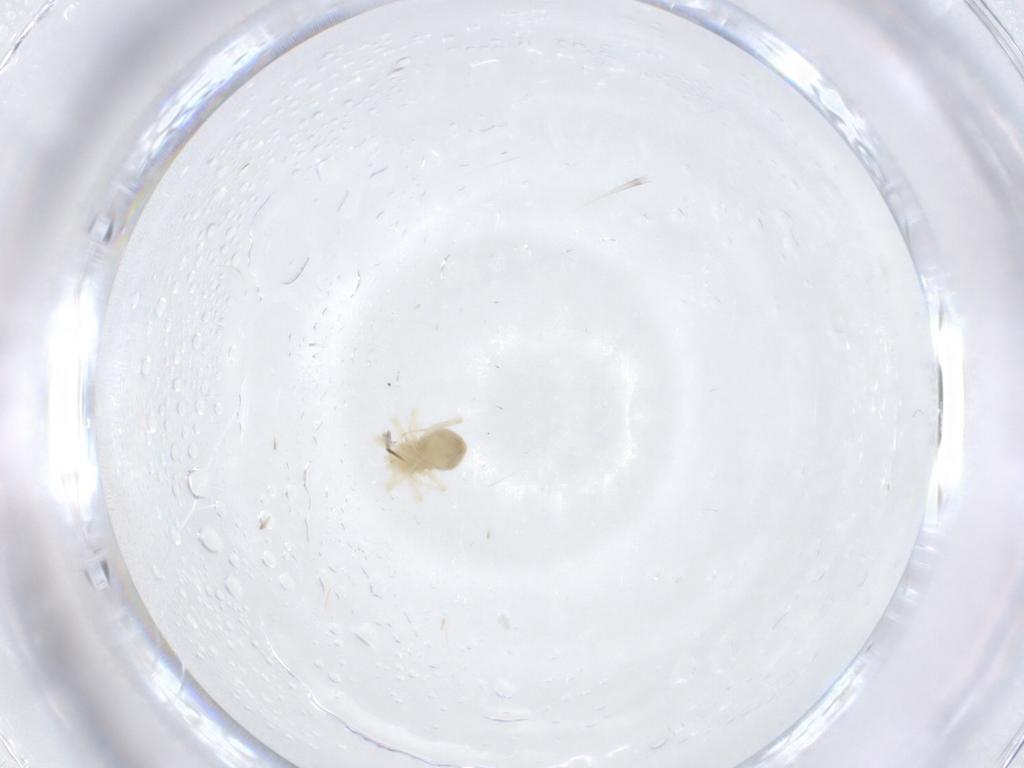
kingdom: Animalia
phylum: Arthropoda
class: Arachnida
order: Trombidiformes
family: Anystidae
